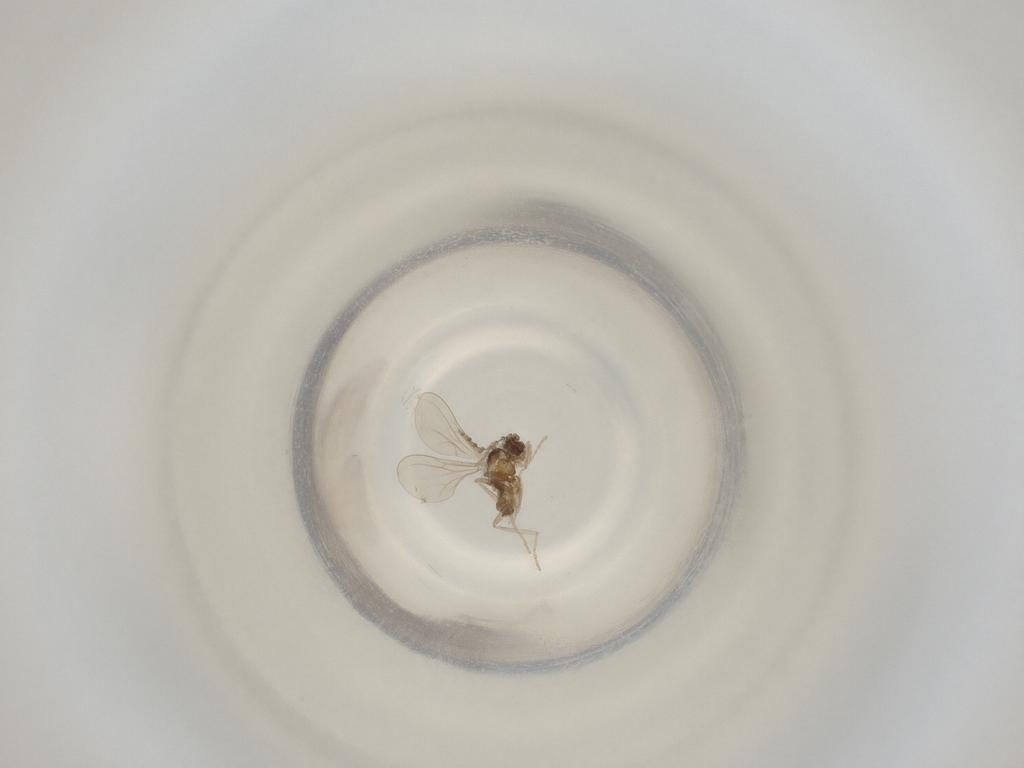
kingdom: Animalia
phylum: Arthropoda
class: Insecta
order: Diptera
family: Cecidomyiidae
